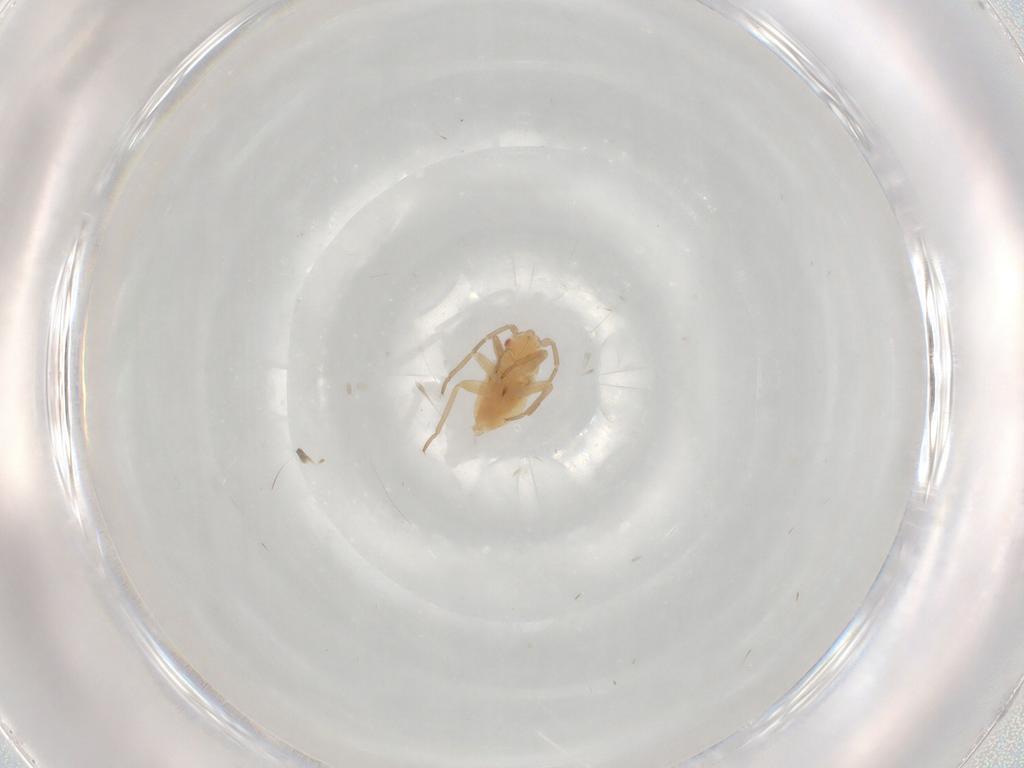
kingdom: Animalia
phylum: Arthropoda
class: Insecta
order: Hemiptera
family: Miridae
